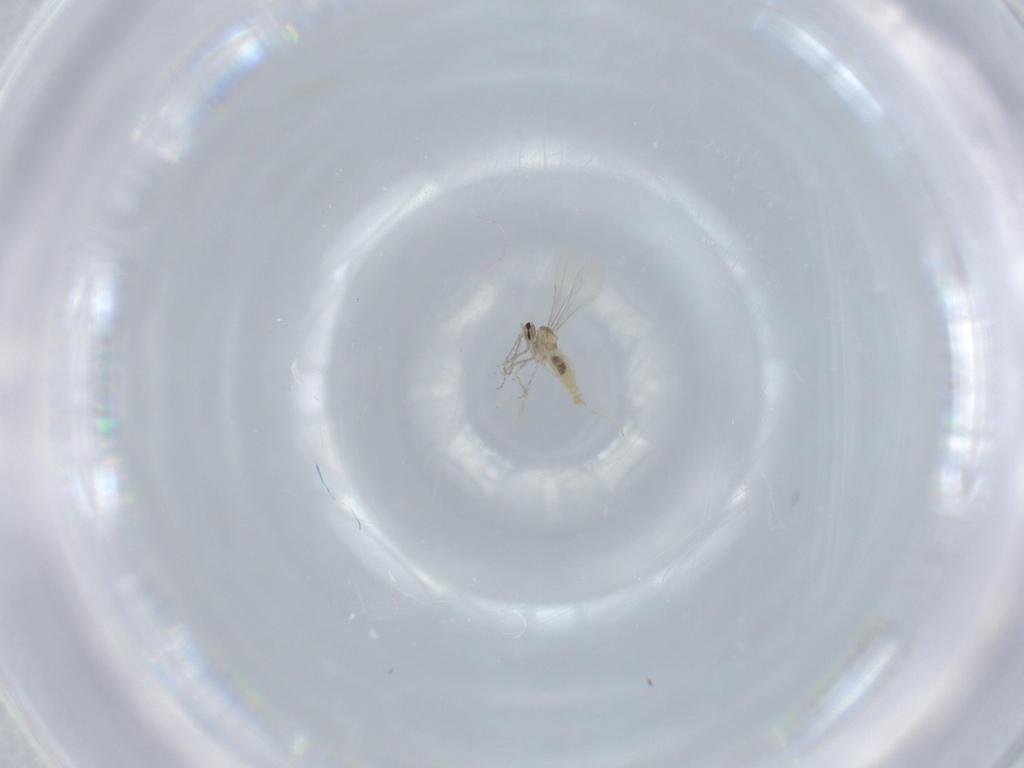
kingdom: Animalia
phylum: Arthropoda
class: Insecta
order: Diptera
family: Cecidomyiidae
